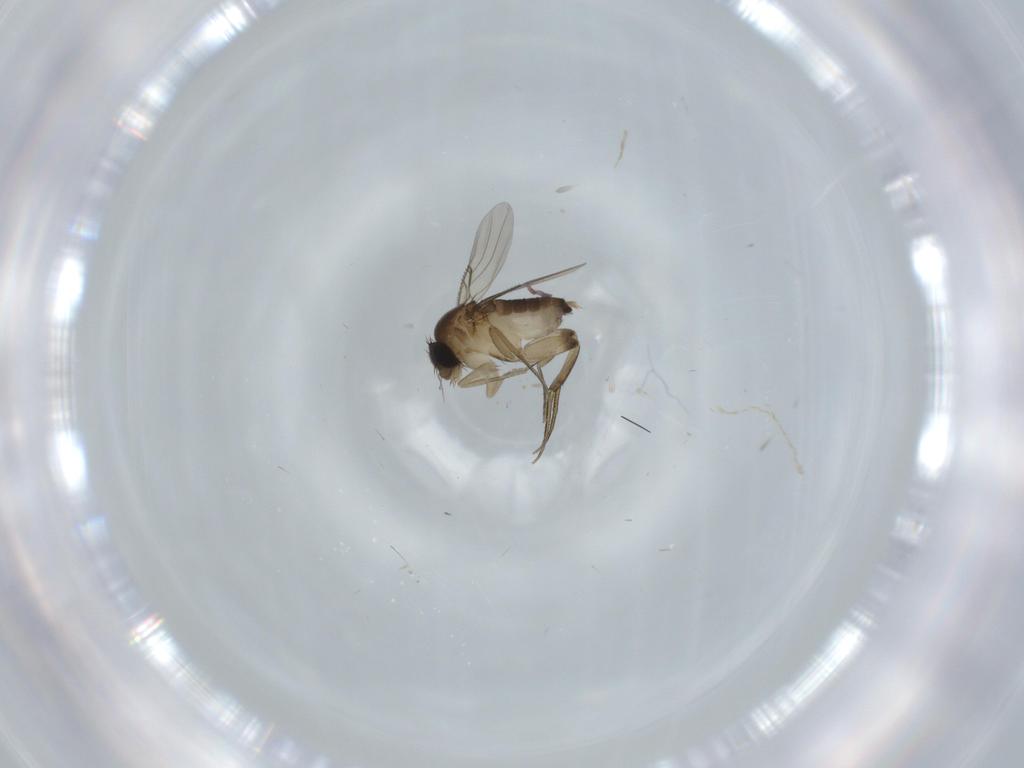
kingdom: Animalia
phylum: Arthropoda
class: Insecta
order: Diptera
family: Phoridae
